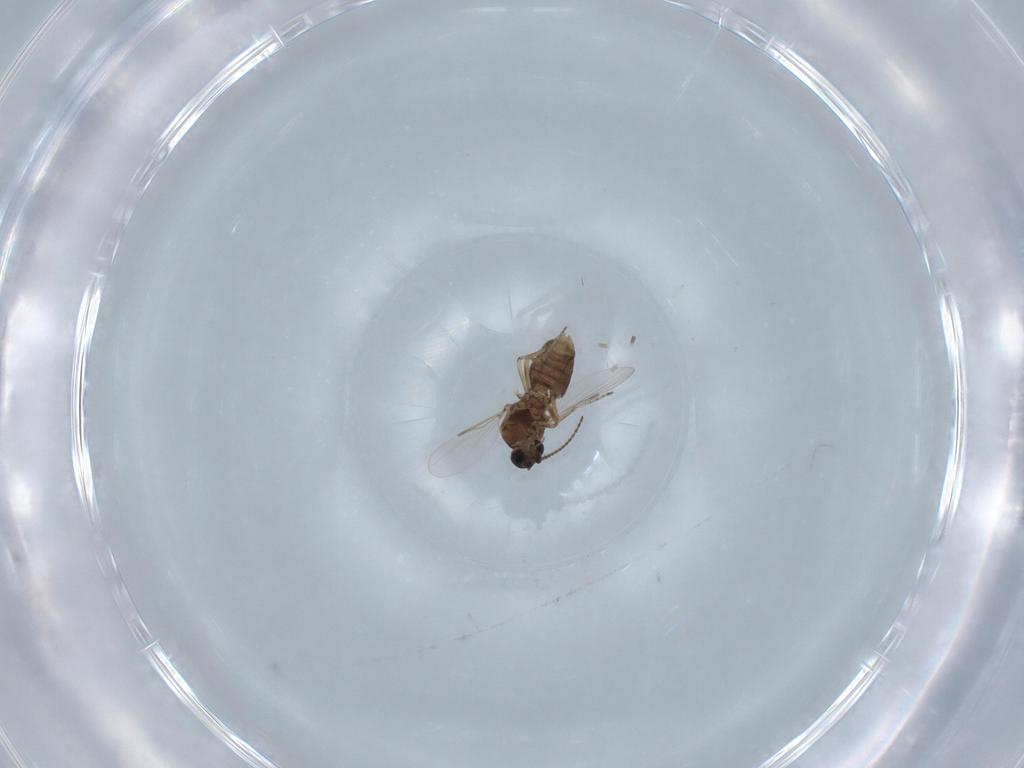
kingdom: Animalia
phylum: Arthropoda
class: Insecta
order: Diptera
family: Ceratopogonidae
